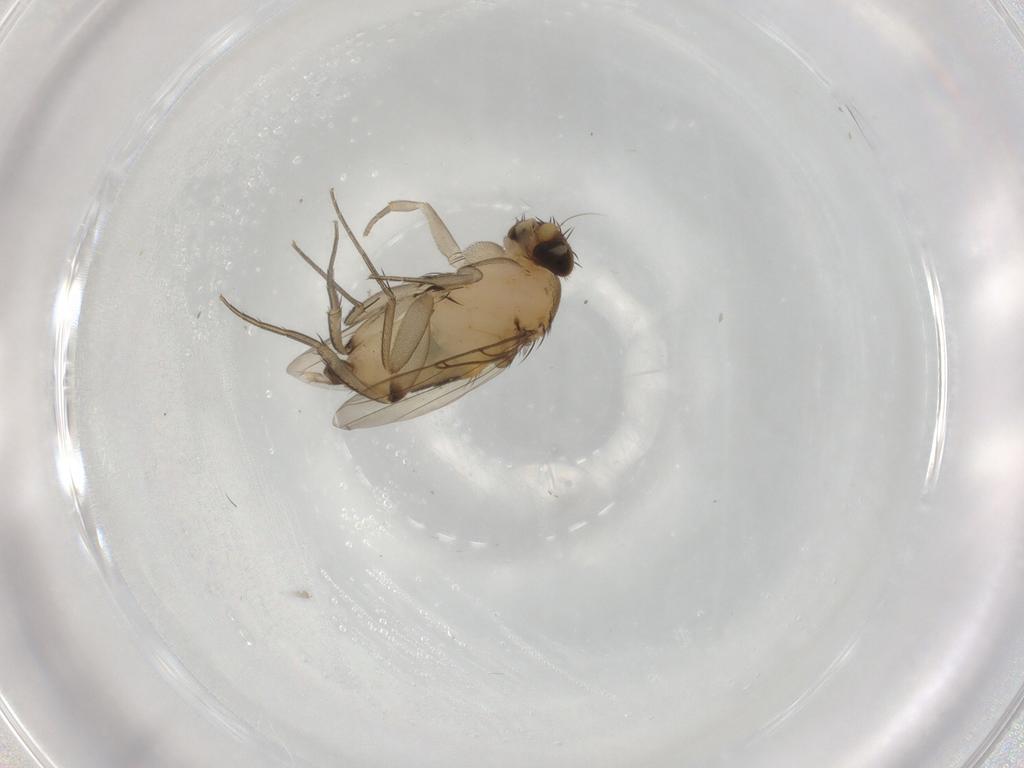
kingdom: Animalia
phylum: Arthropoda
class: Insecta
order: Diptera
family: Phoridae
